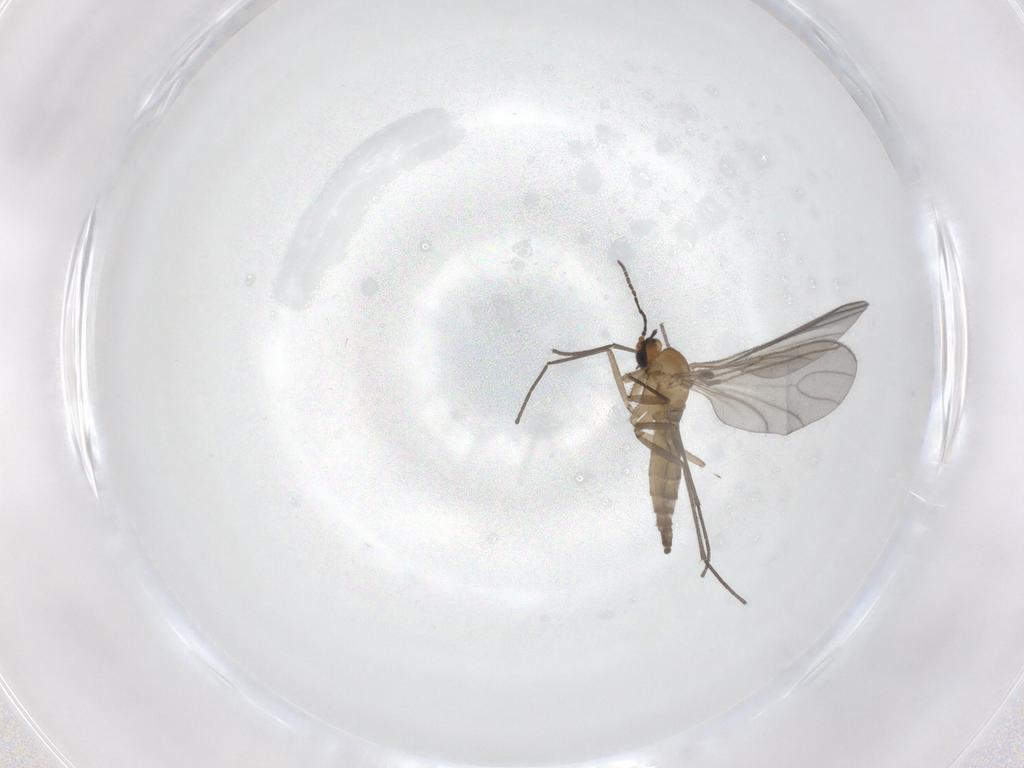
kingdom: Animalia
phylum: Arthropoda
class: Insecta
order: Diptera
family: Sciaridae
